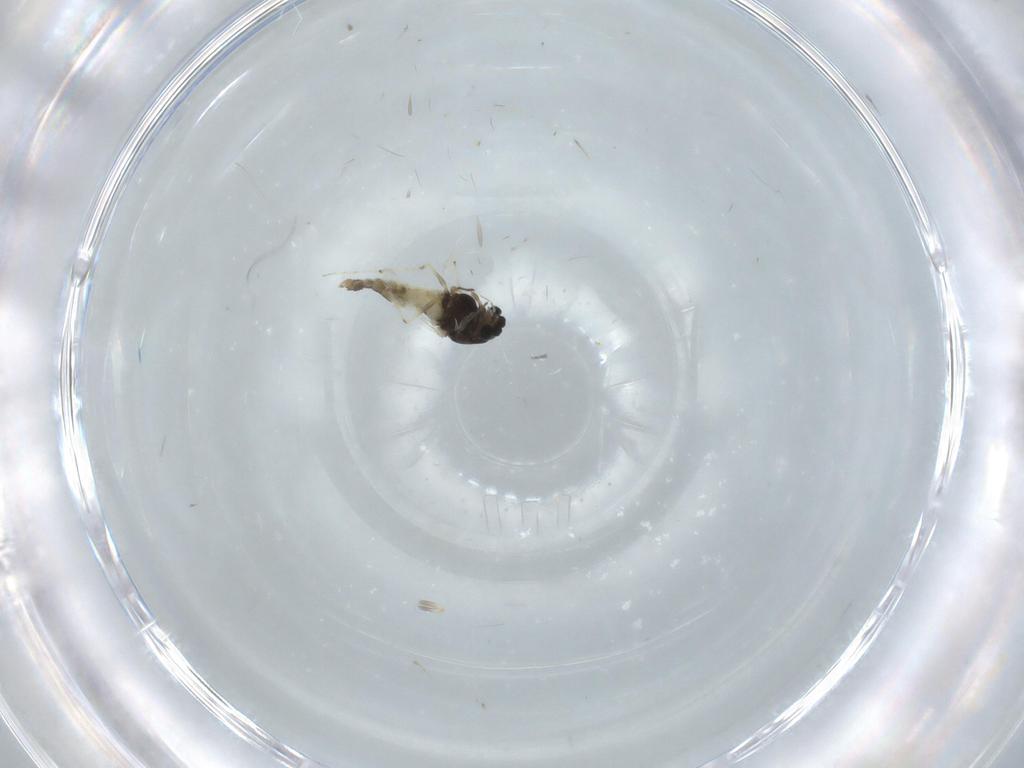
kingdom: Animalia
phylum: Arthropoda
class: Insecta
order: Diptera
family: Chironomidae
